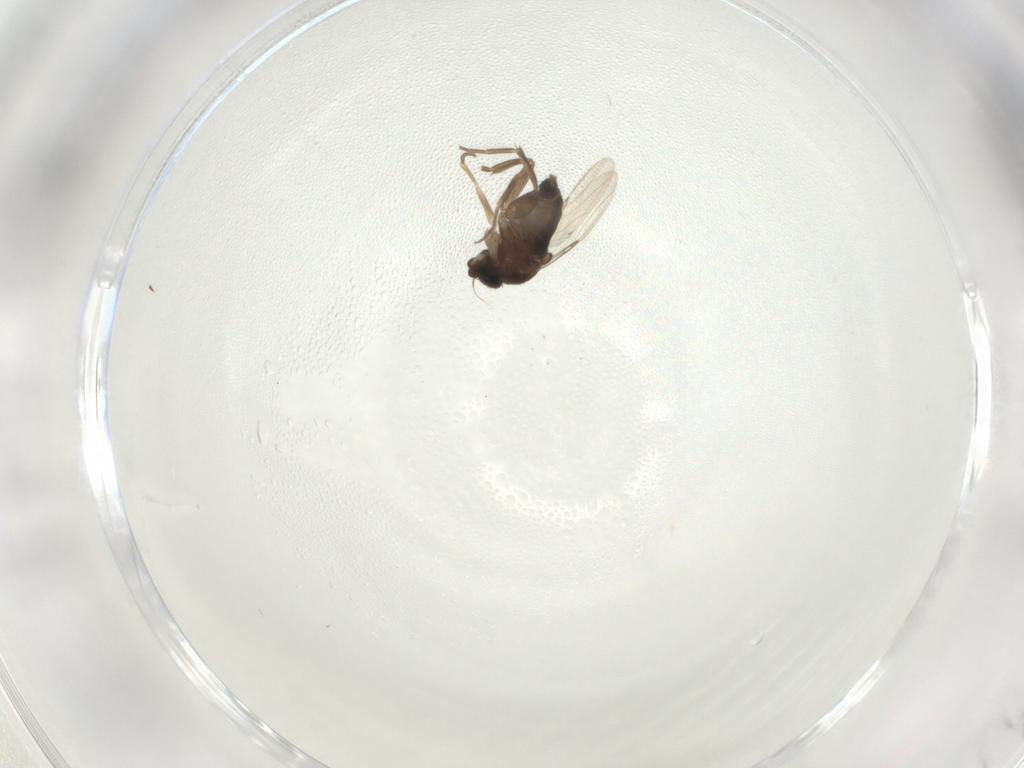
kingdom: Animalia
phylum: Arthropoda
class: Insecta
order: Diptera
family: Phoridae
